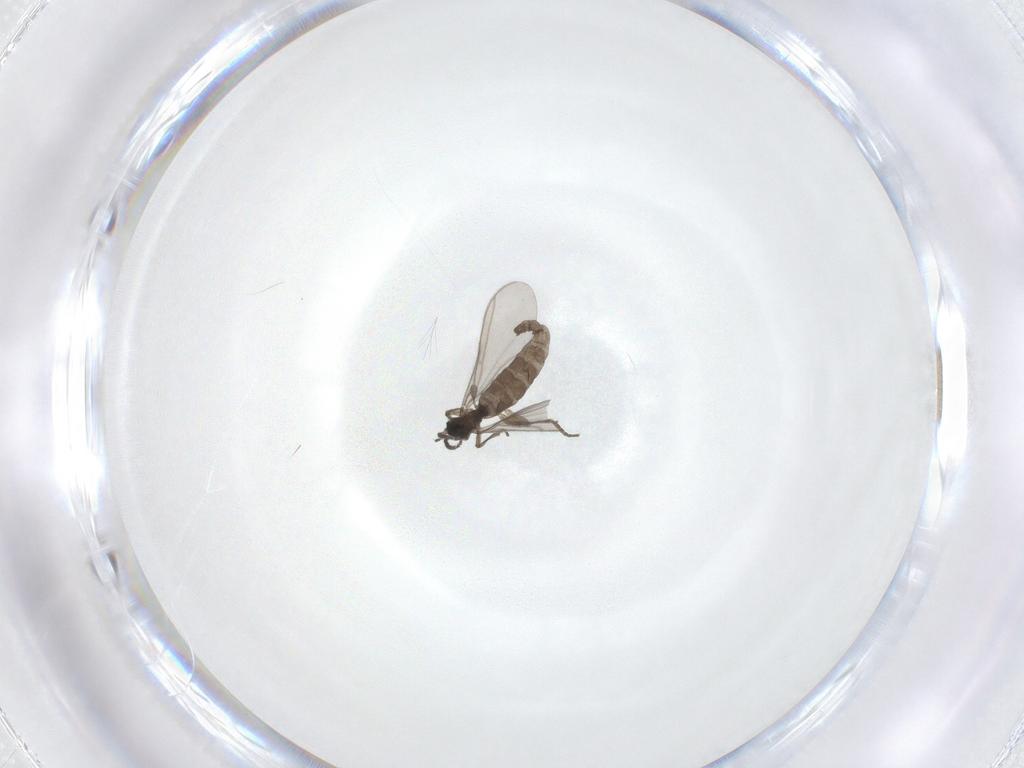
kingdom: Animalia
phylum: Arthropoda
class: Insecta
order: Diptera
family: Sciaridae
